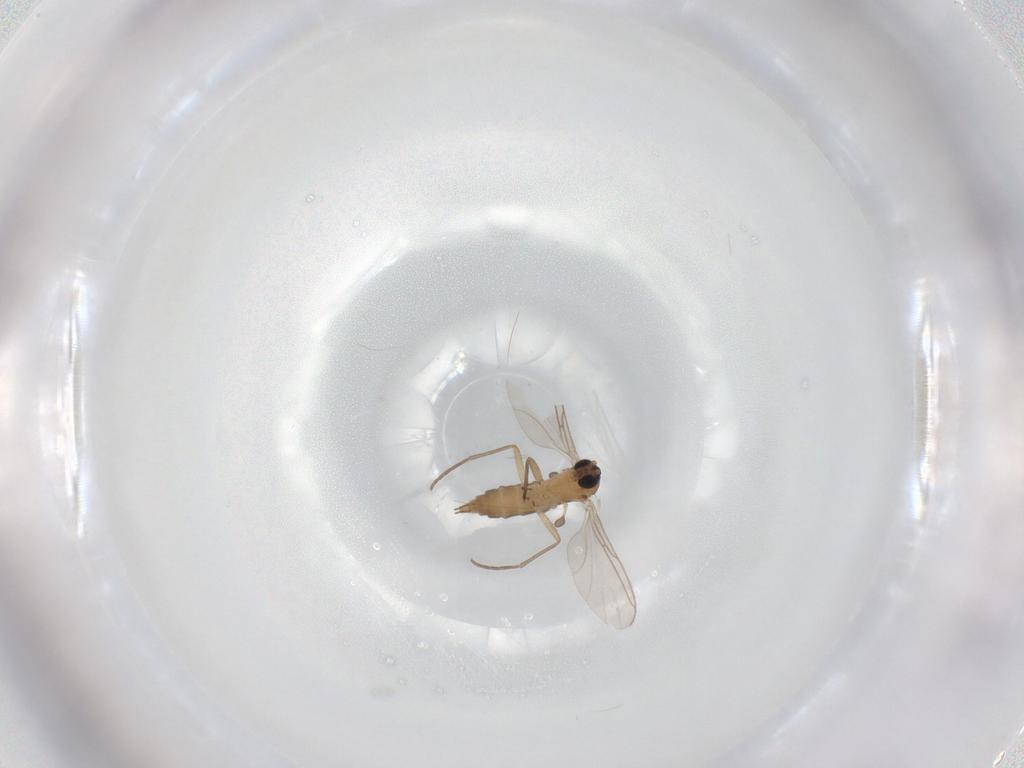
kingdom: Animalia
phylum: Arthropoda
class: Insecta
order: Diptera
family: Sciaridae
